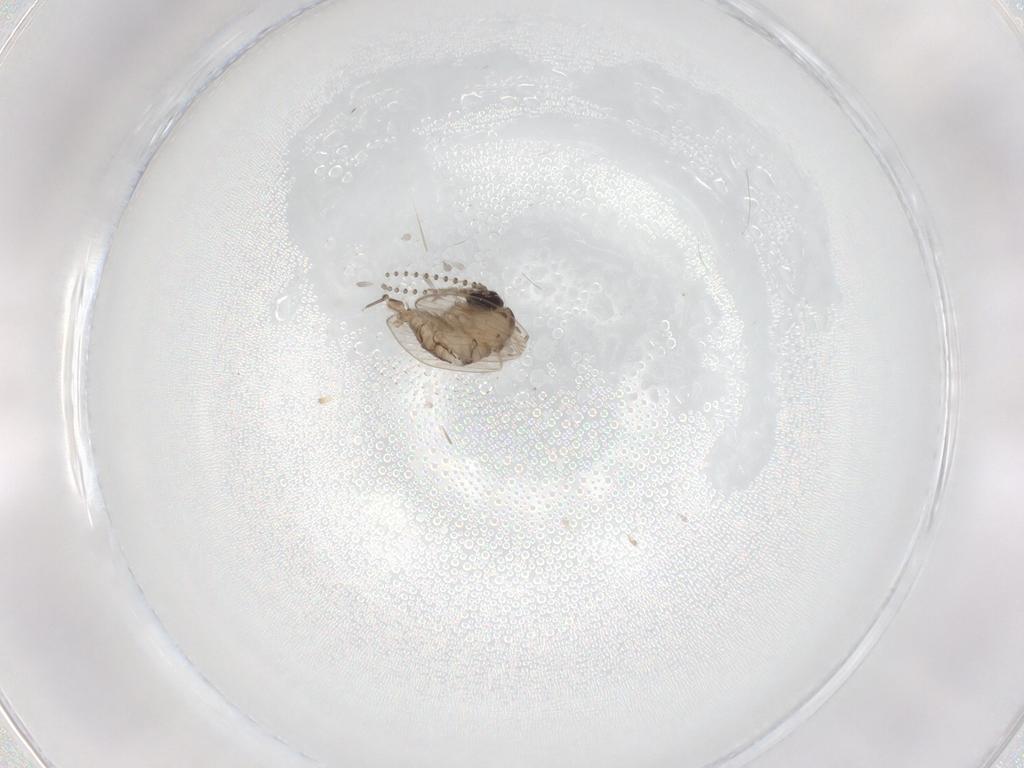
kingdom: Animalia
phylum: Arthropoda
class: Insecta
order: Diptera
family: Psychodidae
